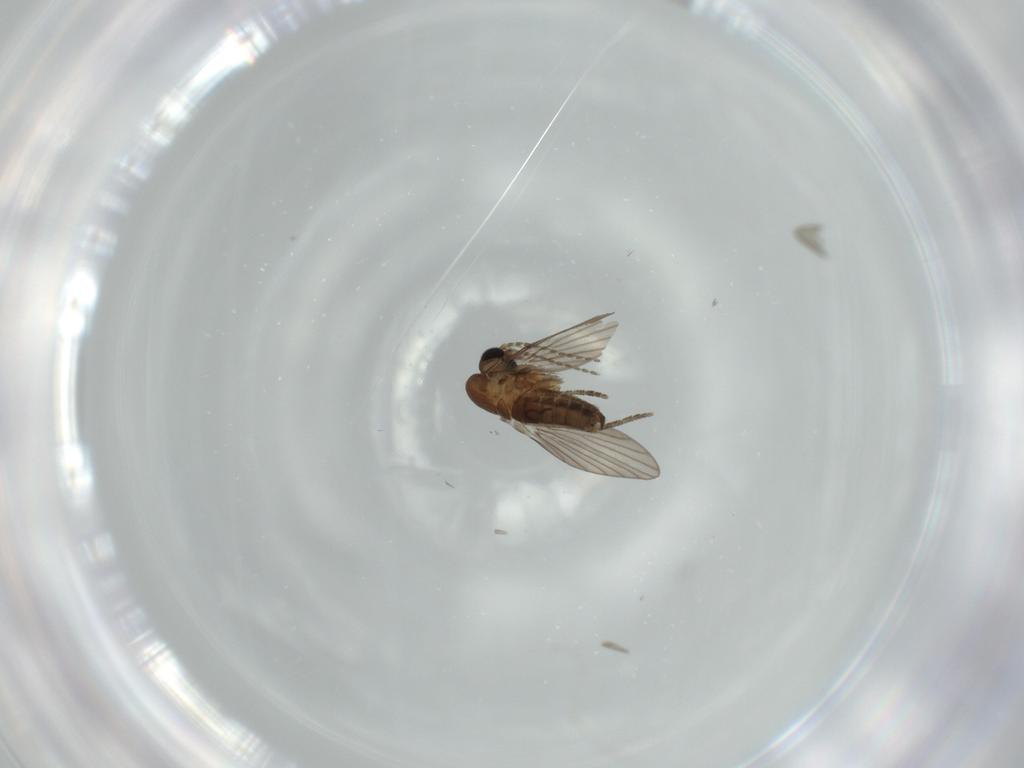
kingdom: Animalia
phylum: Arthropoda
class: Insecta
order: Diptera
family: Cecidomyiidae
